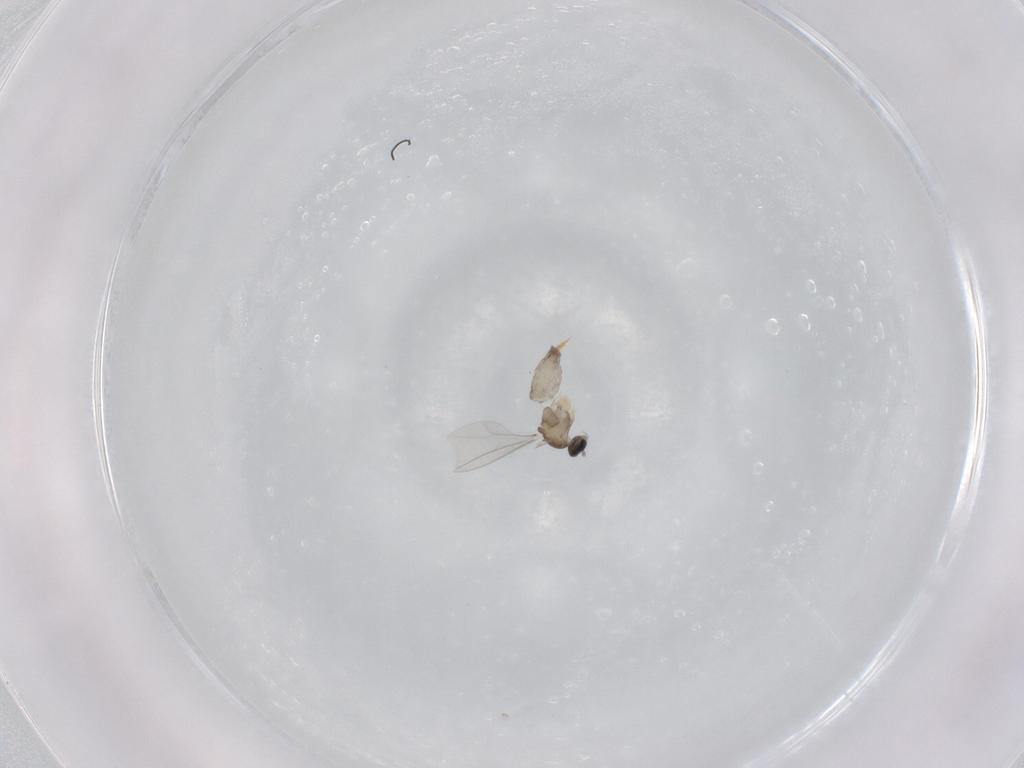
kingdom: Animalia
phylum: Arthropoda
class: Insecta
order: Diptera
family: Cecidomyiidae
